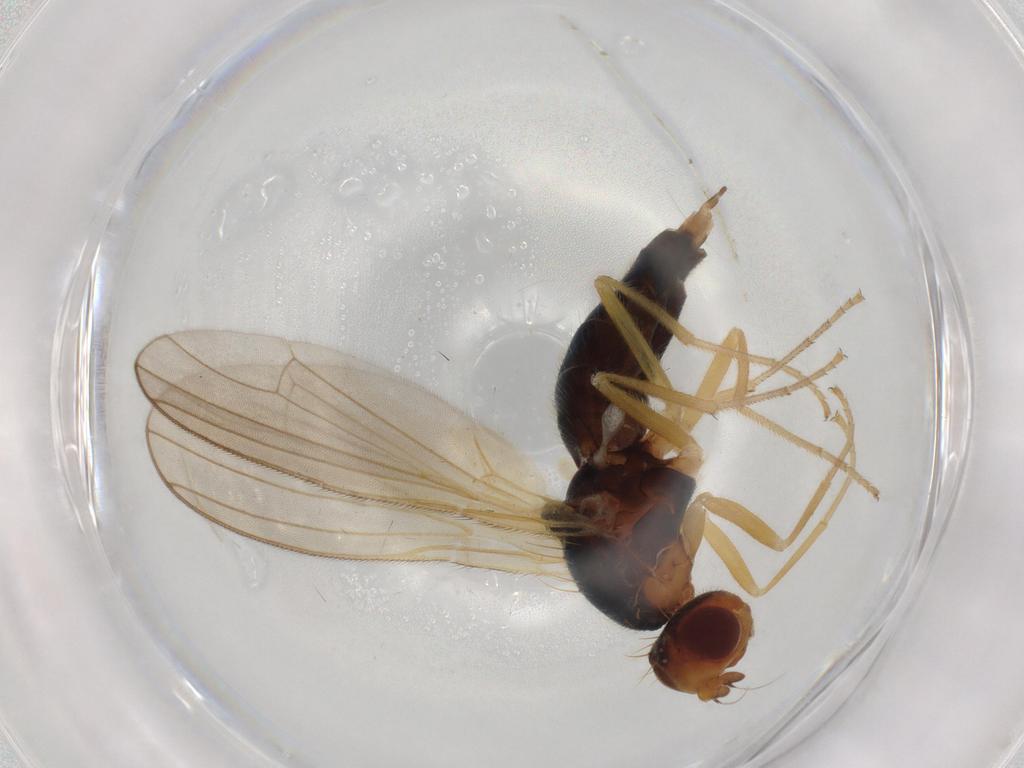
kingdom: Animalia
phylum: Arthropoda
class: Insecta
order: Diptera
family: Psilidae
